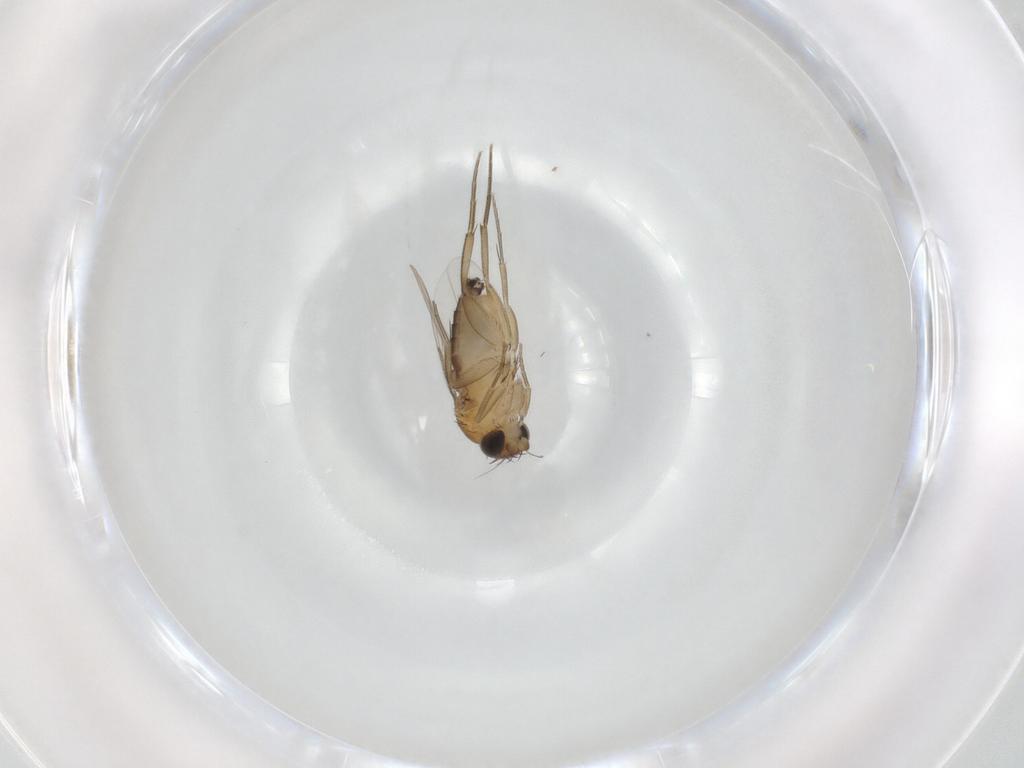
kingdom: Animalia
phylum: Arthropoda
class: Insecta
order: Diptera
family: Phoridae
